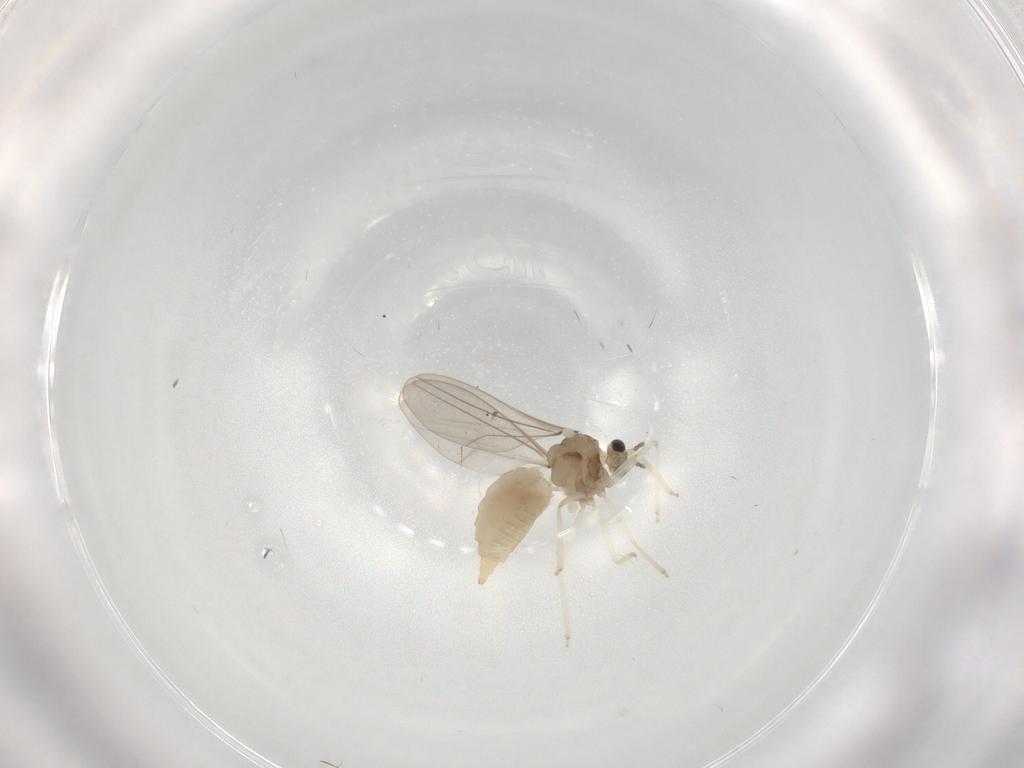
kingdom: Animalia
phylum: Arthropoda
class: Insecta
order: Diptera
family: Cecidomyiidae
